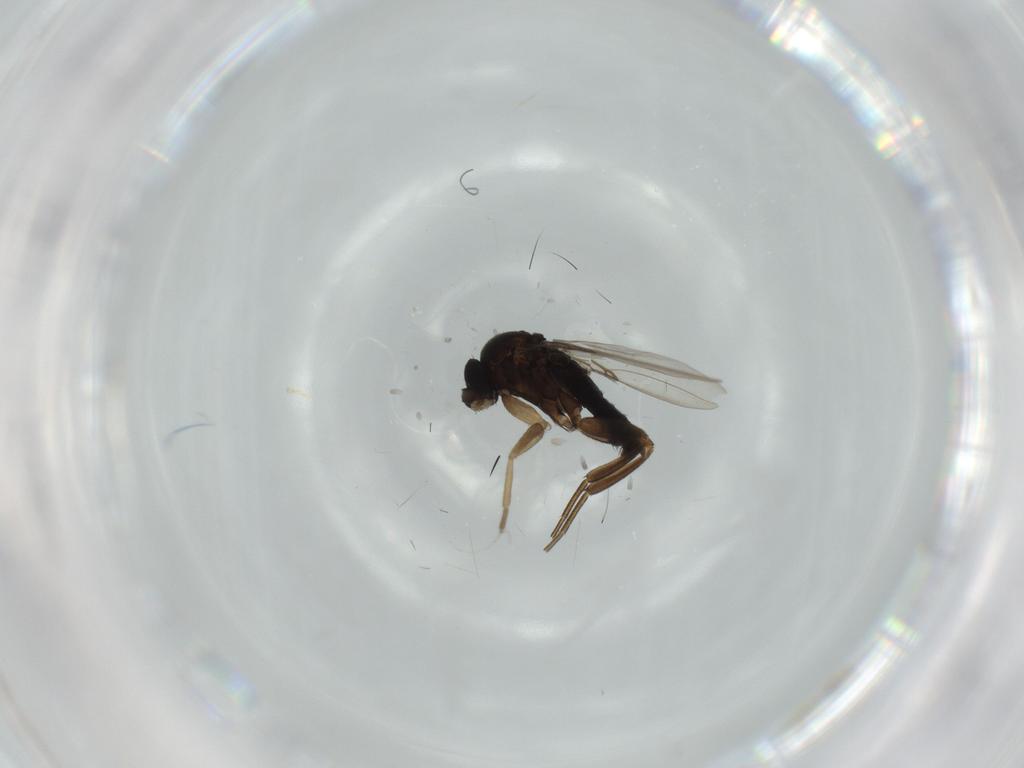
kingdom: Animalia
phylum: Arthropoda
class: Insecta
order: Diptera
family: Phoridae
